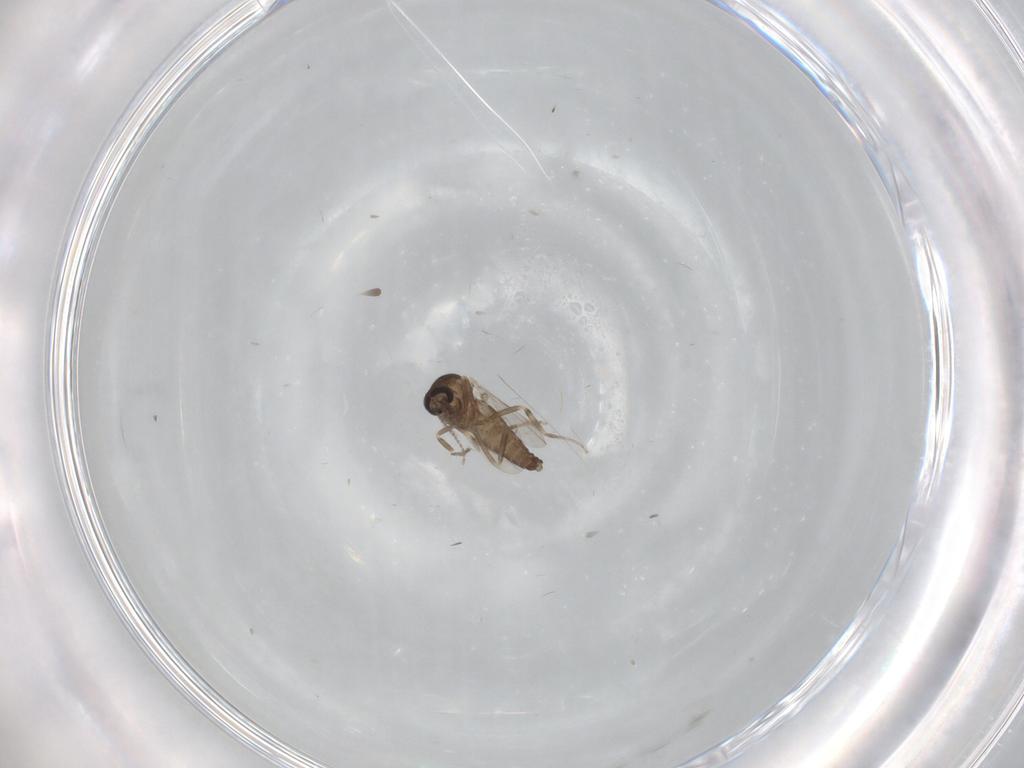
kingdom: Animalia
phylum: Arthropoda
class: Insecta
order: Diptera
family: Ceratopogonidae
